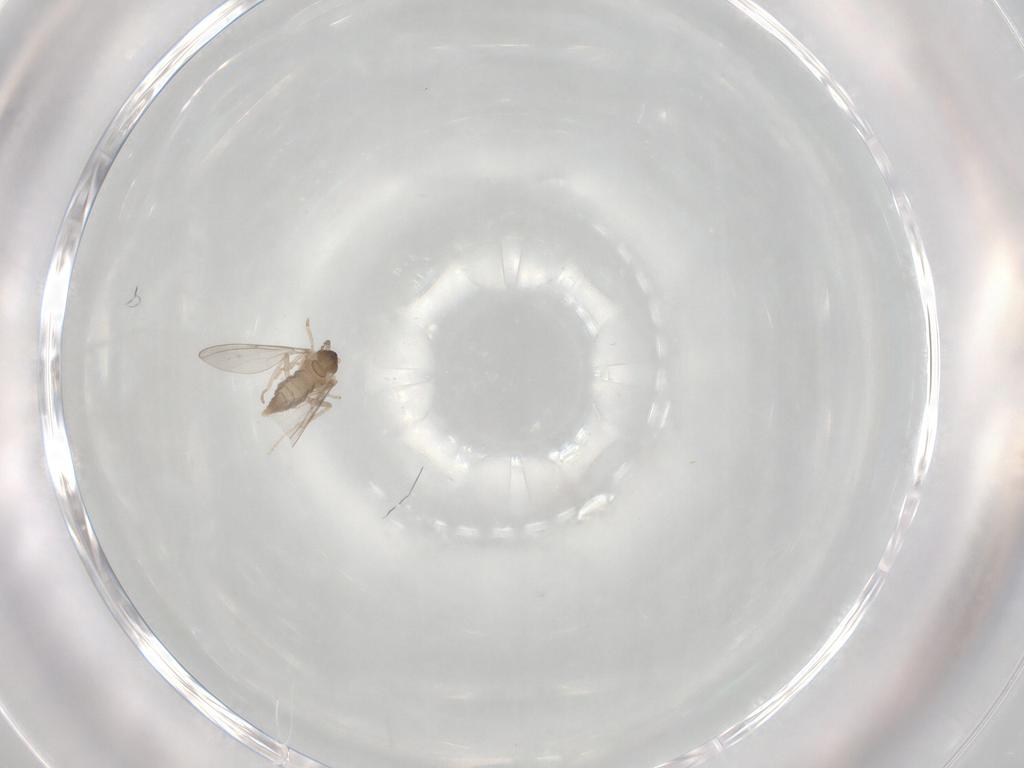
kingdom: Animalia
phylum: Arthropoda
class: Insecta
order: Diptera
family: Cecidomyiidae
